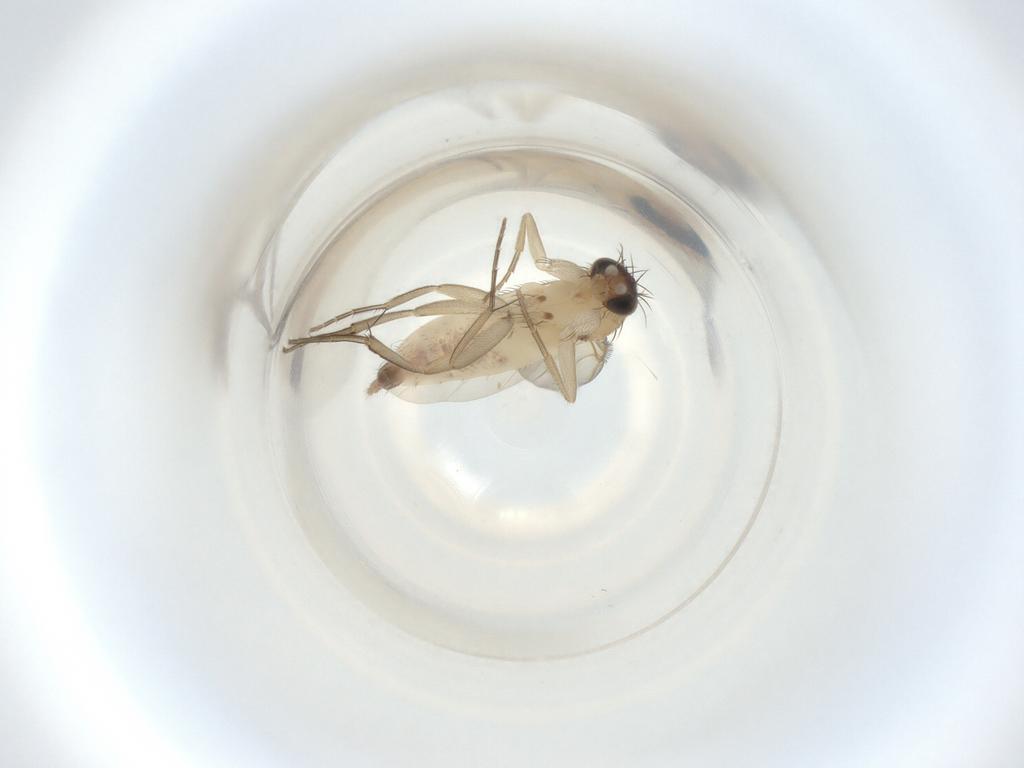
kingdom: Animalia
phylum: Arthropoda
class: Insecta
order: Diptera
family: Phoridae
